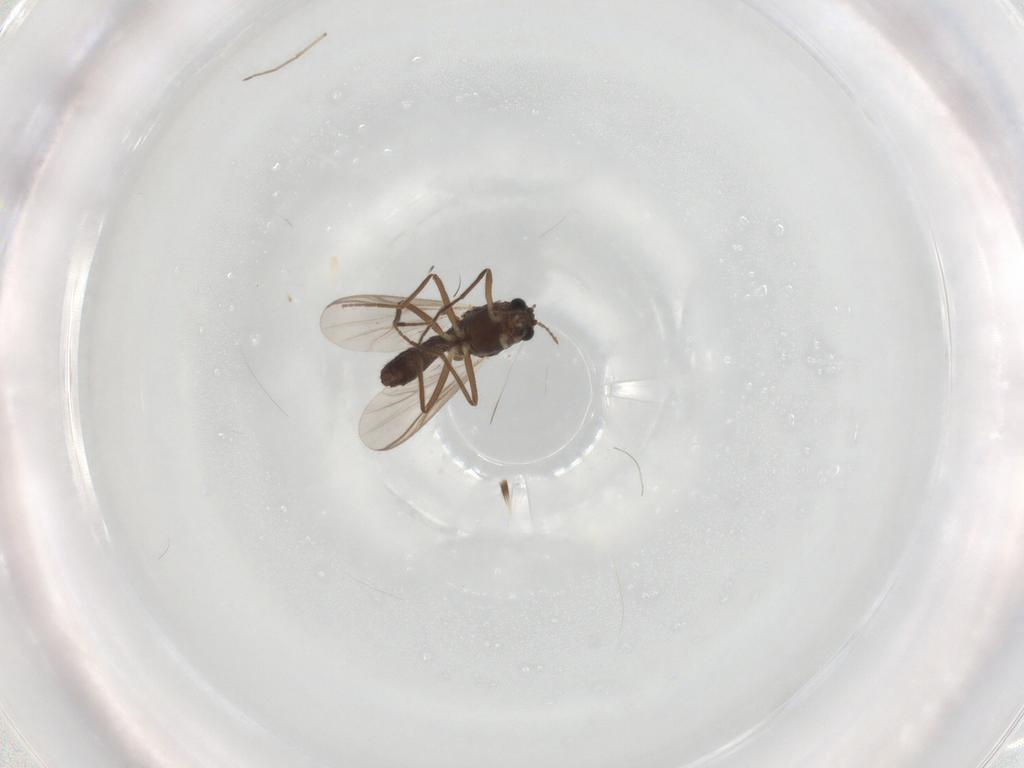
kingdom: Animalia
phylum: Arthropoda
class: Insecta
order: Diptera
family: Chironomidae
